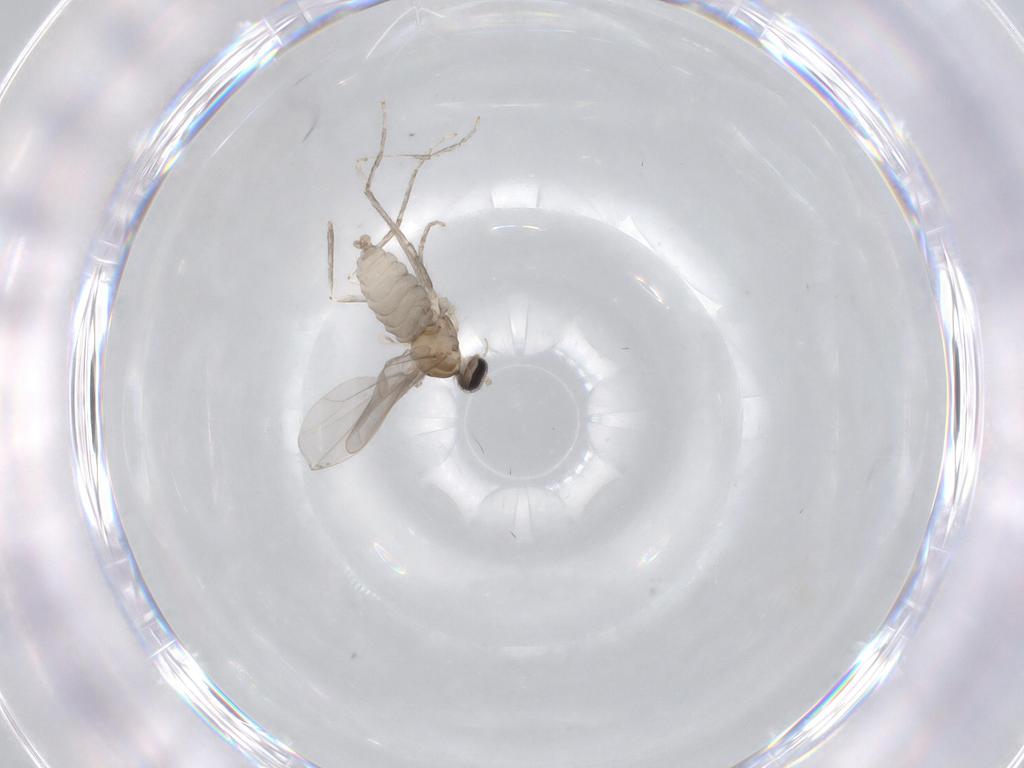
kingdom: Animalia
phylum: Arthropoda
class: Insecta
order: Diptera
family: Cecidomyiidae
